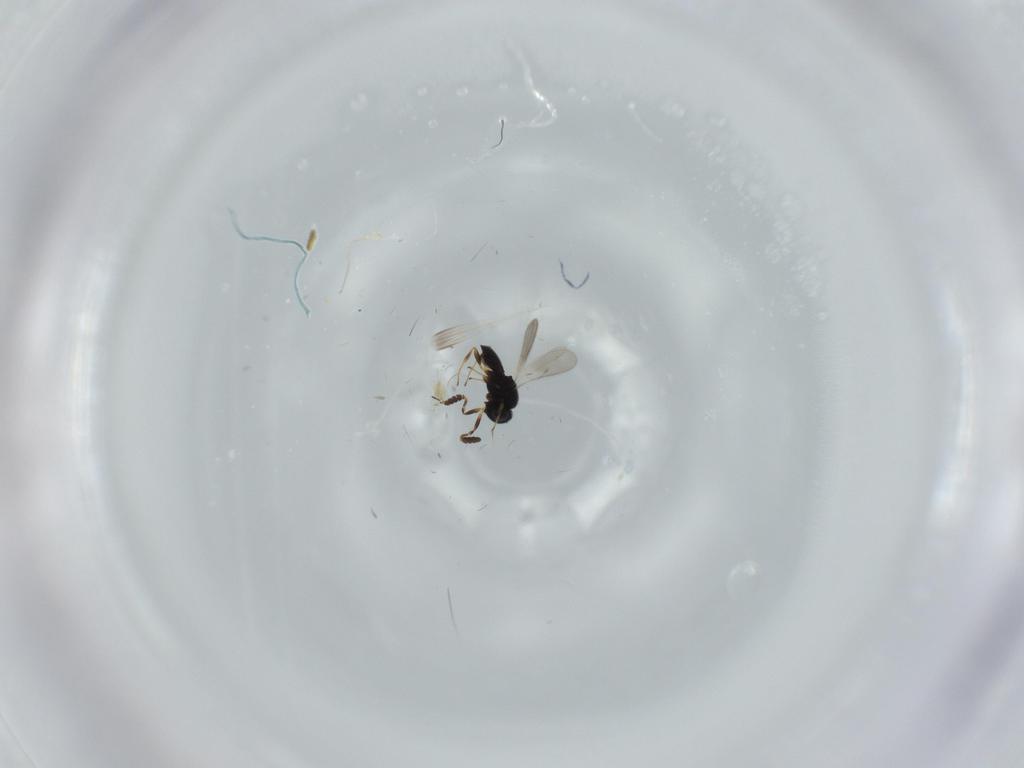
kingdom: Animalia
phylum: Arthropoda
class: Insecta
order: Hymenoptera
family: Scelionidae
